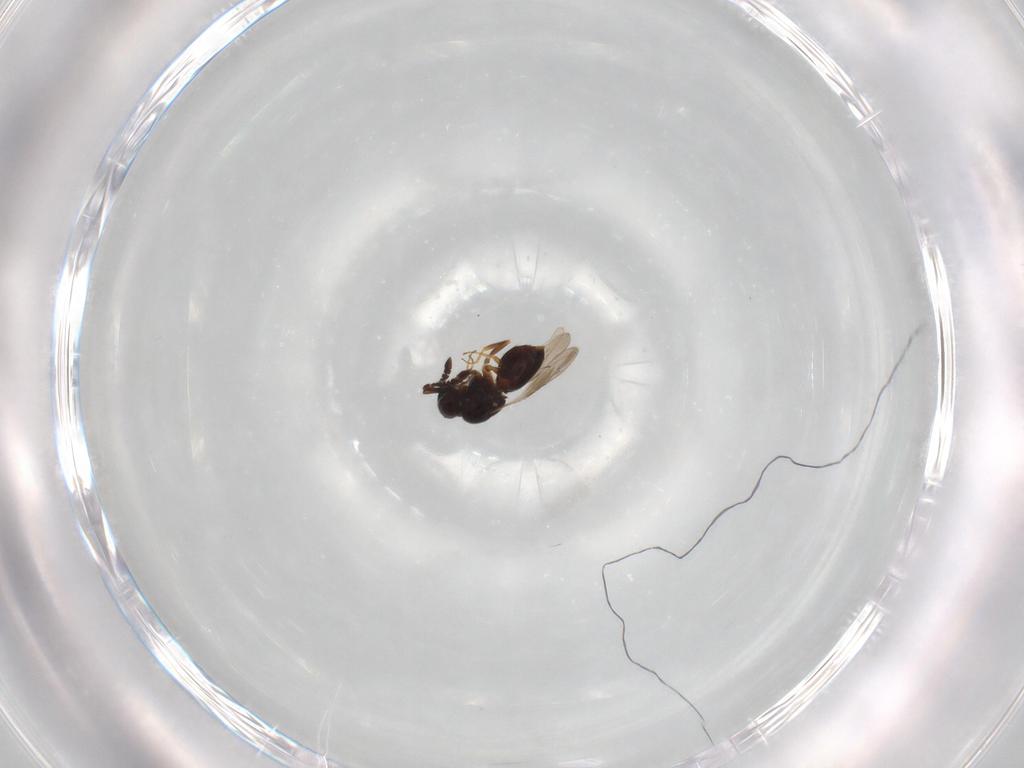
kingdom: Animalia
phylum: Arthropoda
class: Insecta
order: Hymenoptera
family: Ceraphronidae
